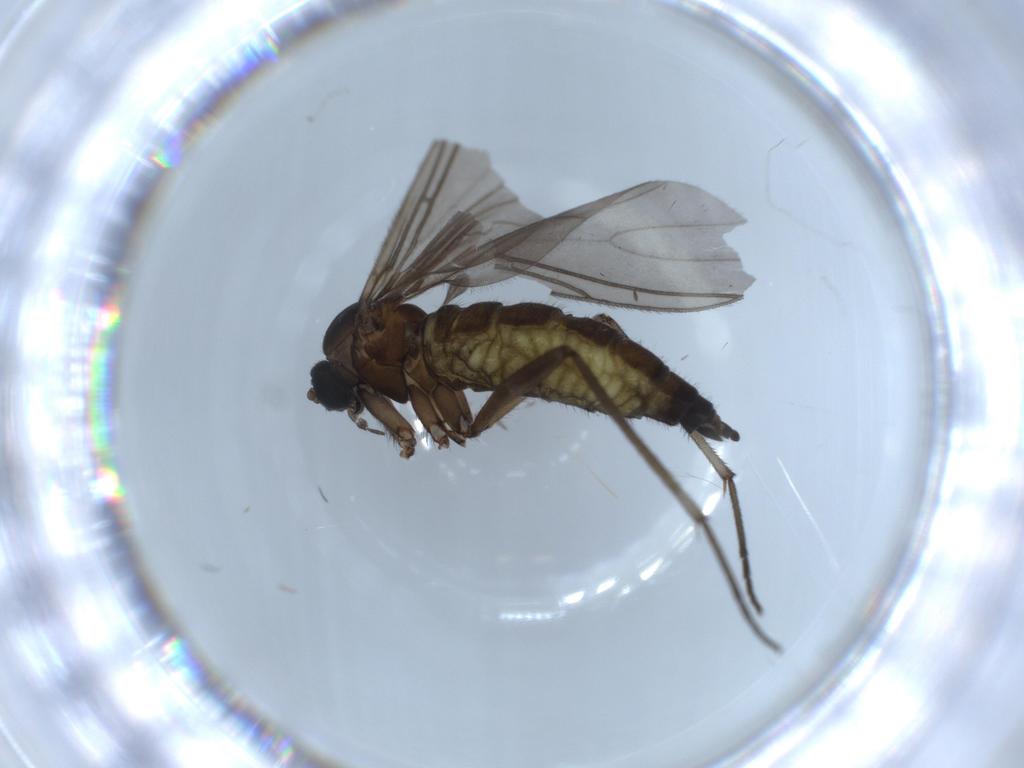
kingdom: Animalia
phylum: Arthropoda
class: Insecta
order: Diptera
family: Sciaridae
